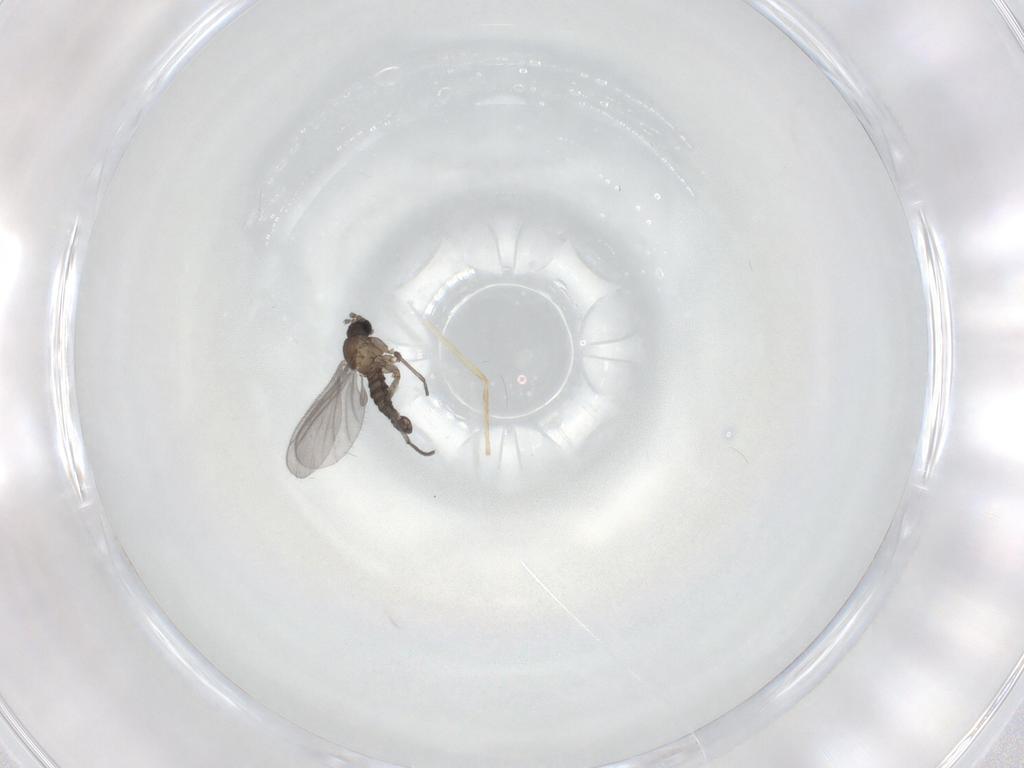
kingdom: Animalia
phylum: Arthropoda
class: Insecta
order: Diptera
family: Sciaridae
